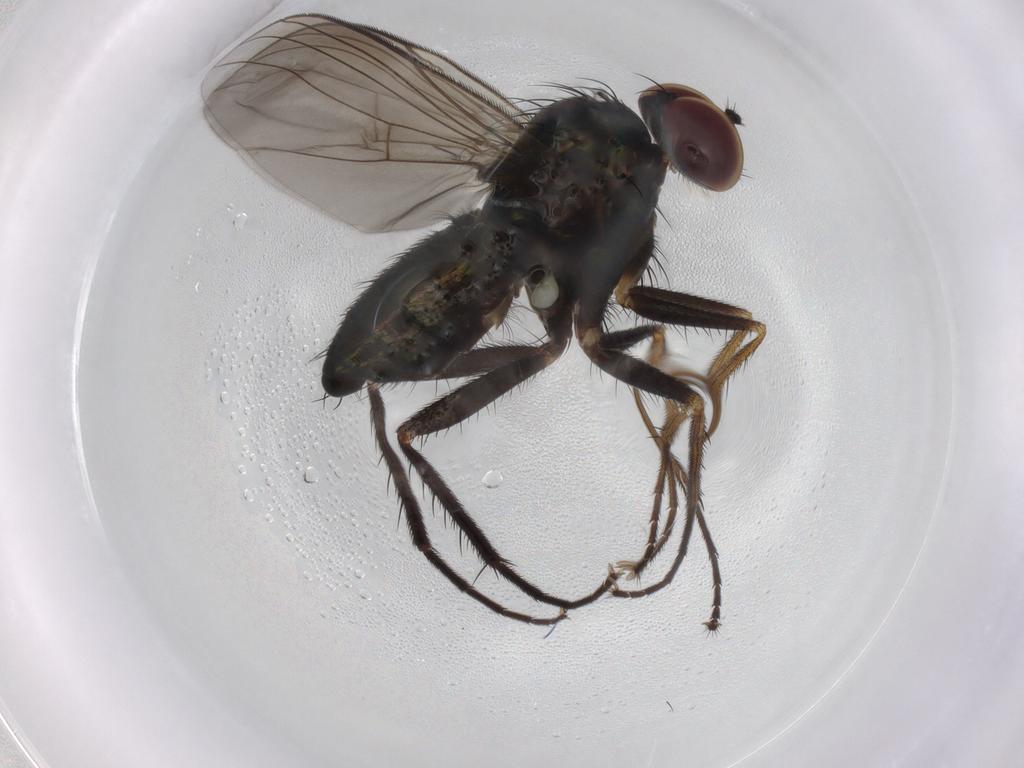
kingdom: Animalia
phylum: Arthropoda
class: Insecta
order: Diptera
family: Dolichopodidae
